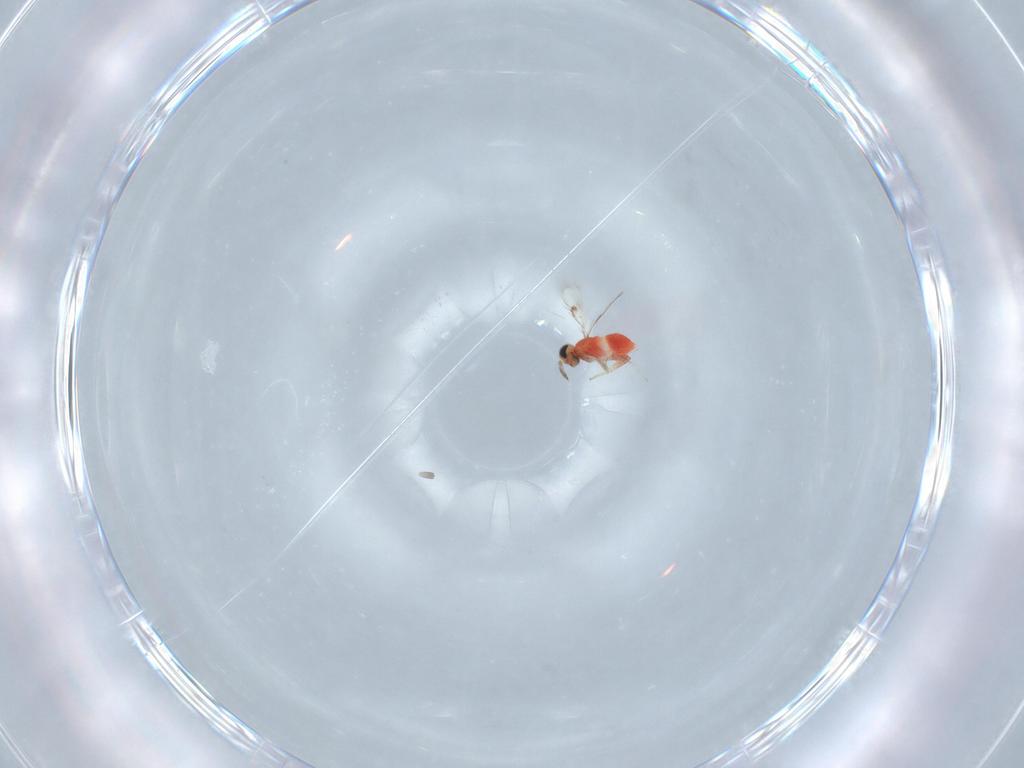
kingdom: Animalia
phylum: Arthropoda
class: Insecta
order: Hymenoptera
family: Trichogrammatidae
